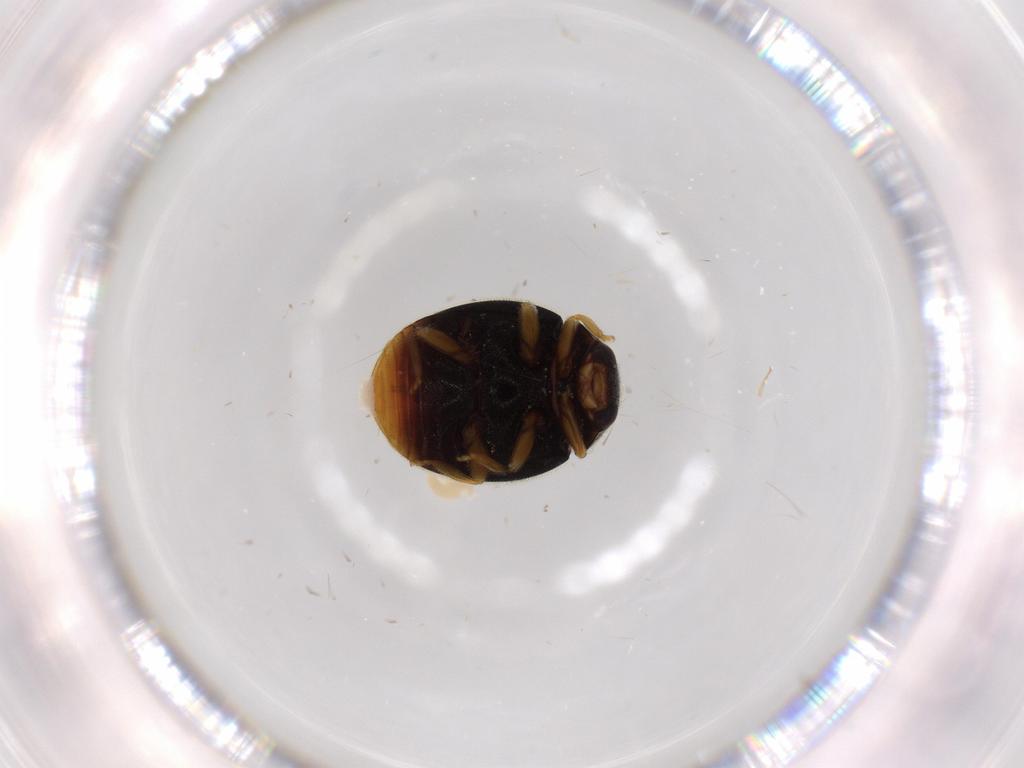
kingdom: Animalia
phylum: Arthropoda
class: Insecta
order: Coleoptera
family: Coccinellidae
